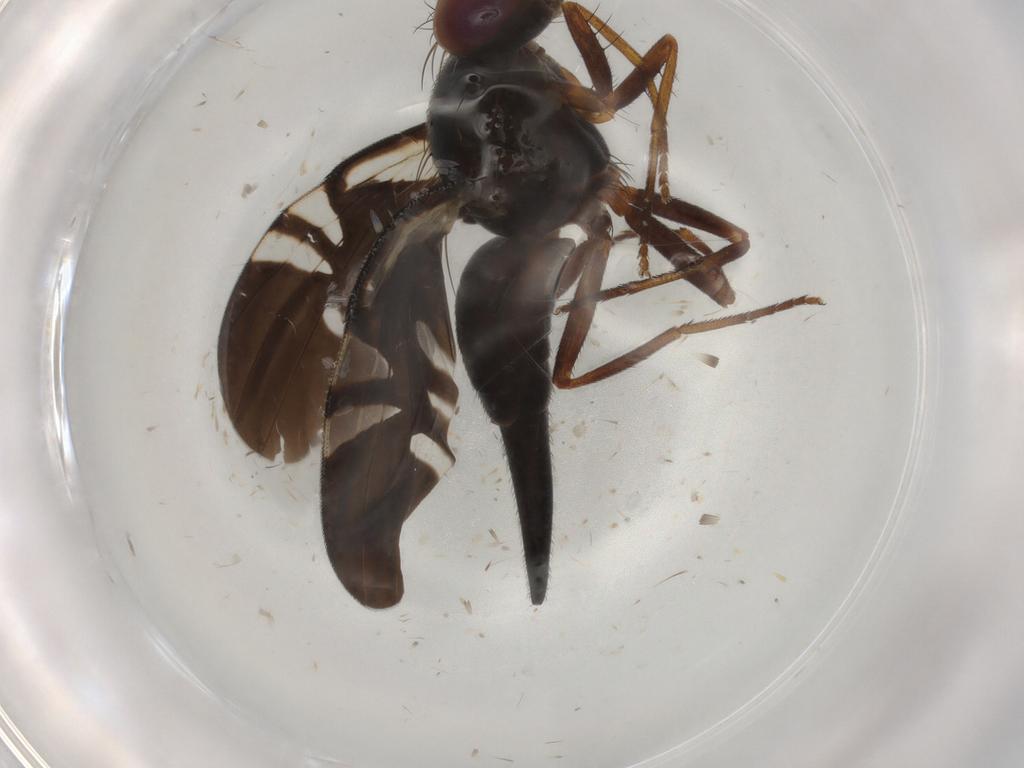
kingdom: Animalia
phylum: Arthropoda
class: Insecta
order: Diptera
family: Tephritidae
